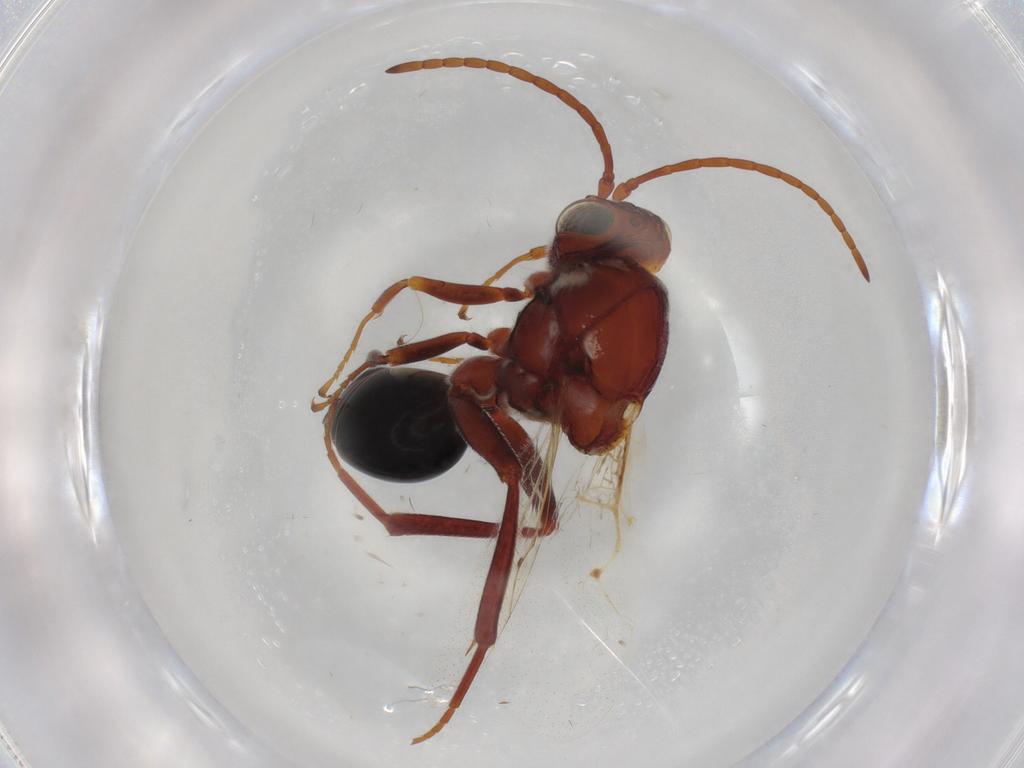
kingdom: Animalia
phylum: Arthropoda
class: Insecta
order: Hymenoptera
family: Figitidae
